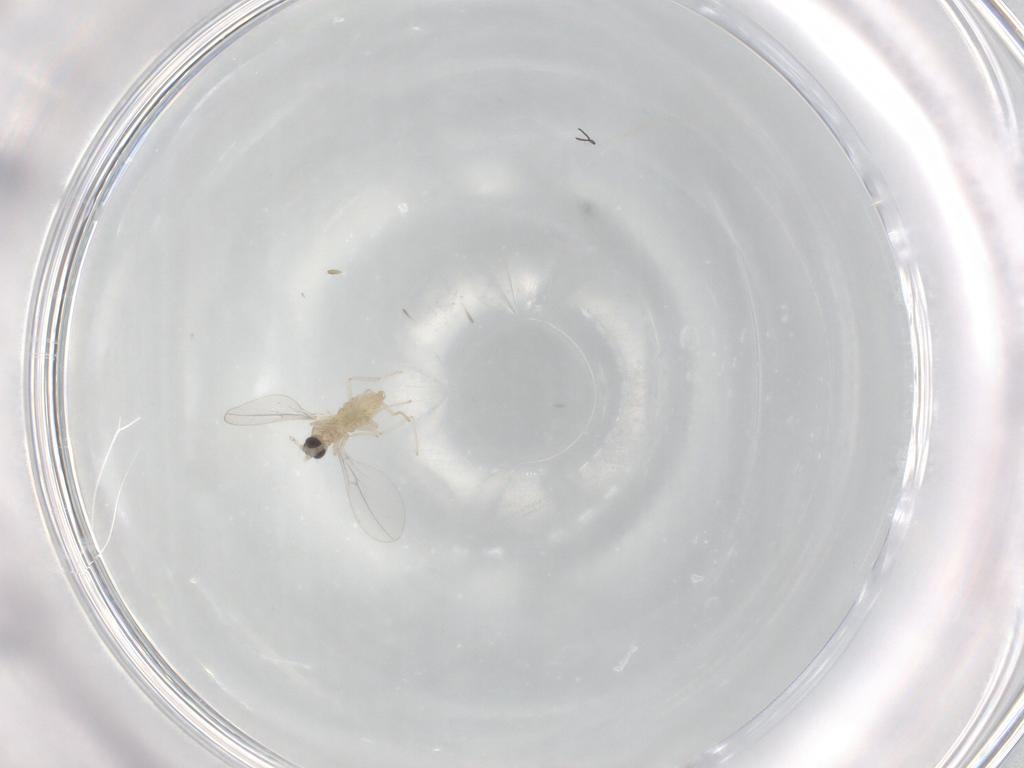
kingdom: Animalia
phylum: Arthropoda
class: Insecta
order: Diptera
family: Cecidomyiidae
